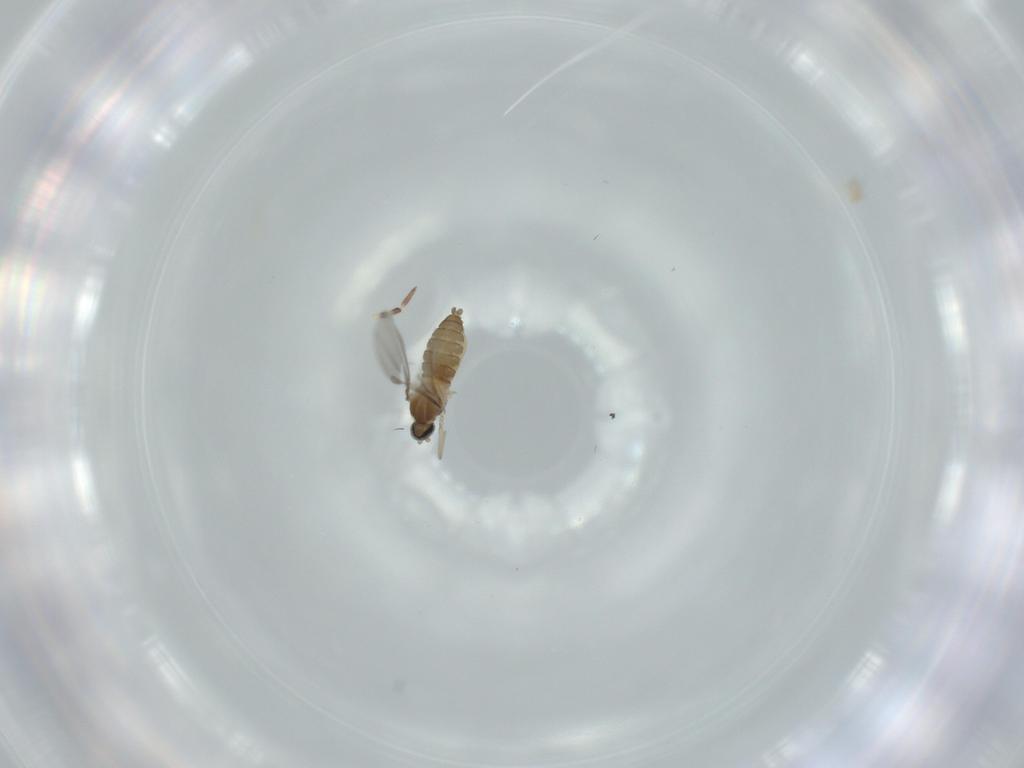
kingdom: Animalia
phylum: Arthropoda
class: Insecta
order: Diptera
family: Cecidomyiidae
